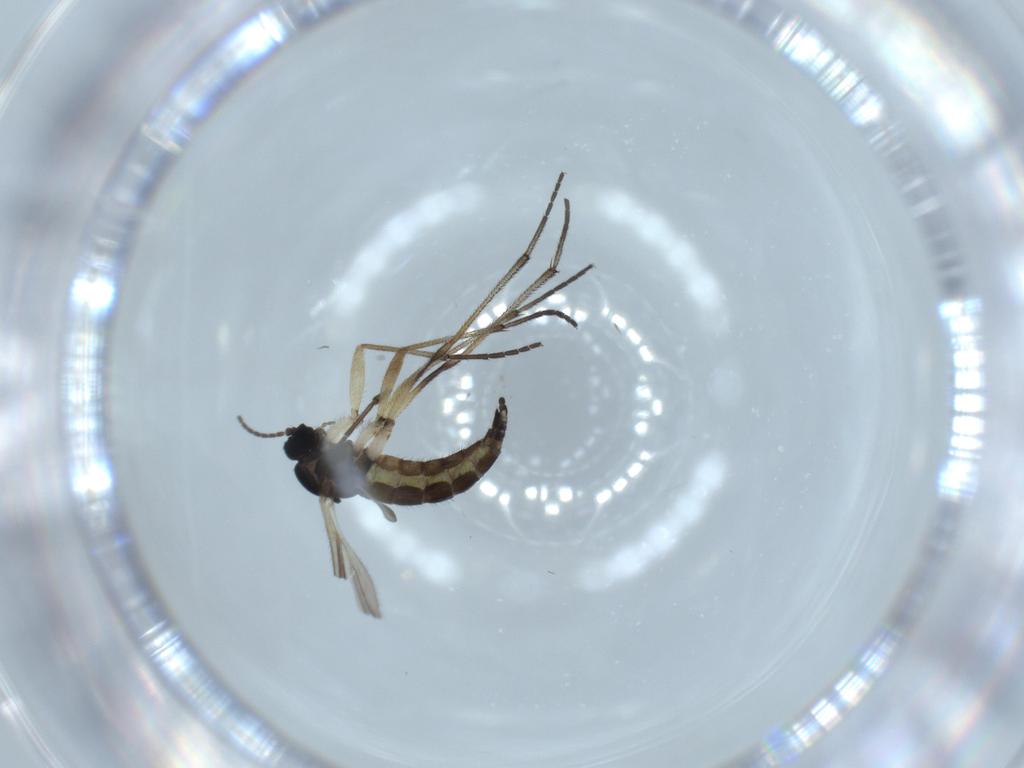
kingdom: Animalia
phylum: Arthropoda
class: Insecta
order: Diptera
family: Sciaridae
